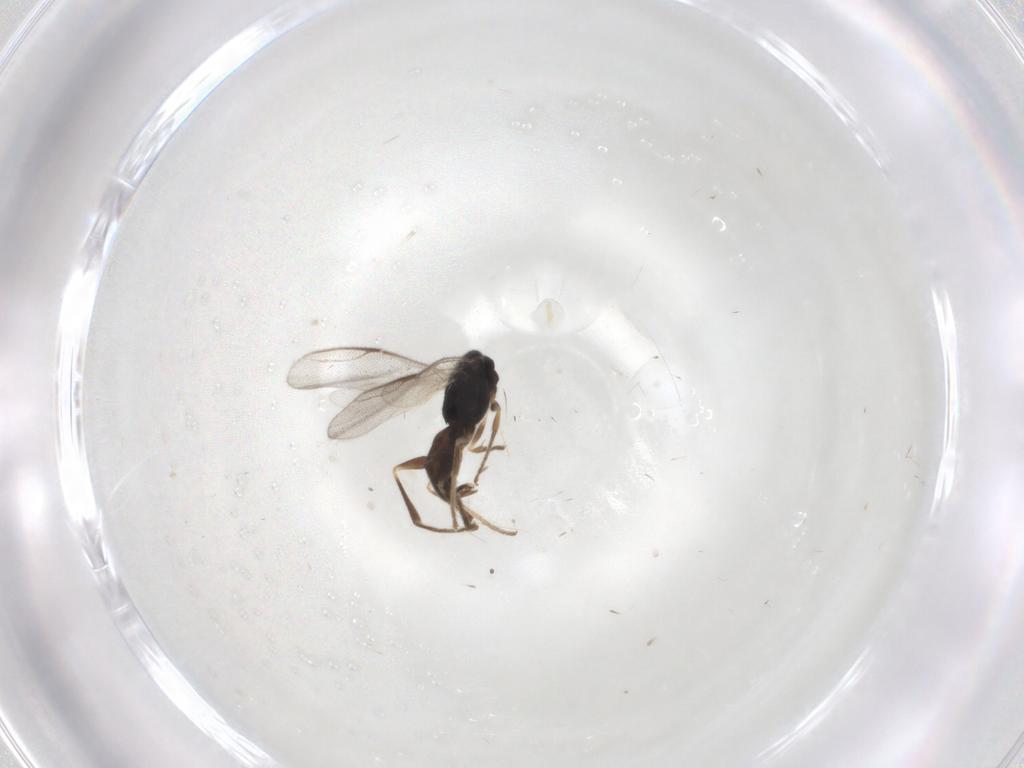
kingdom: Animalia
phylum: Arthropoda
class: Insecta
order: Hymenoptera
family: Dryinidae
